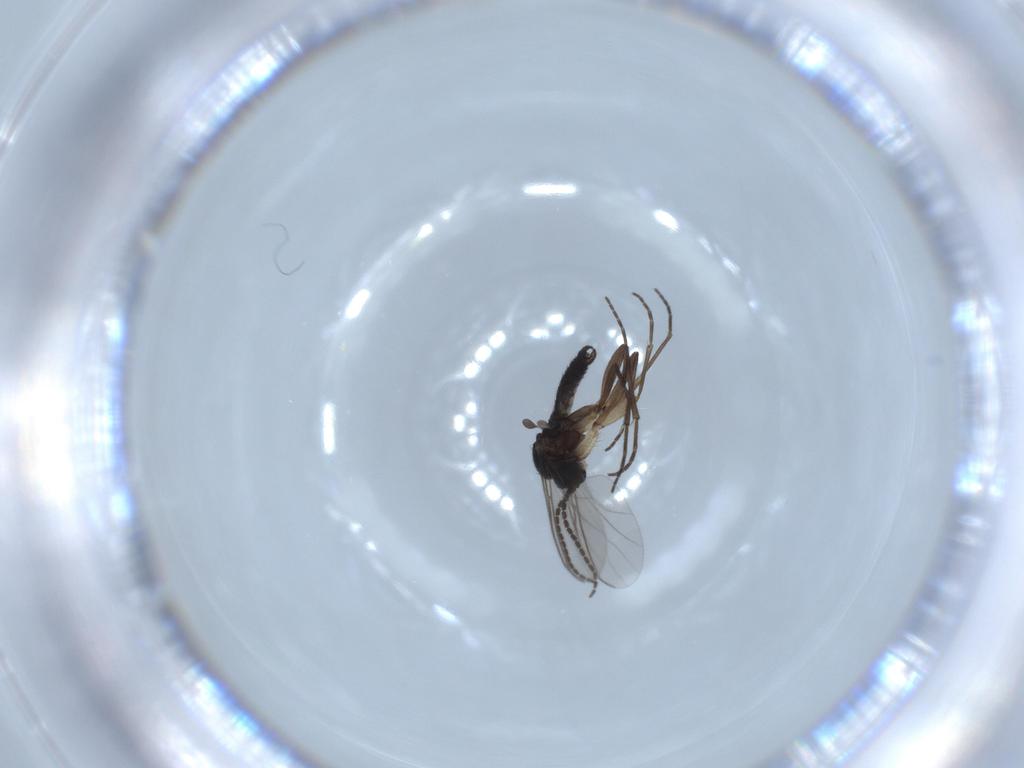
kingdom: Animalia
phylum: Arthropoda
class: Insecta
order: Diptera
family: Sciaridae
